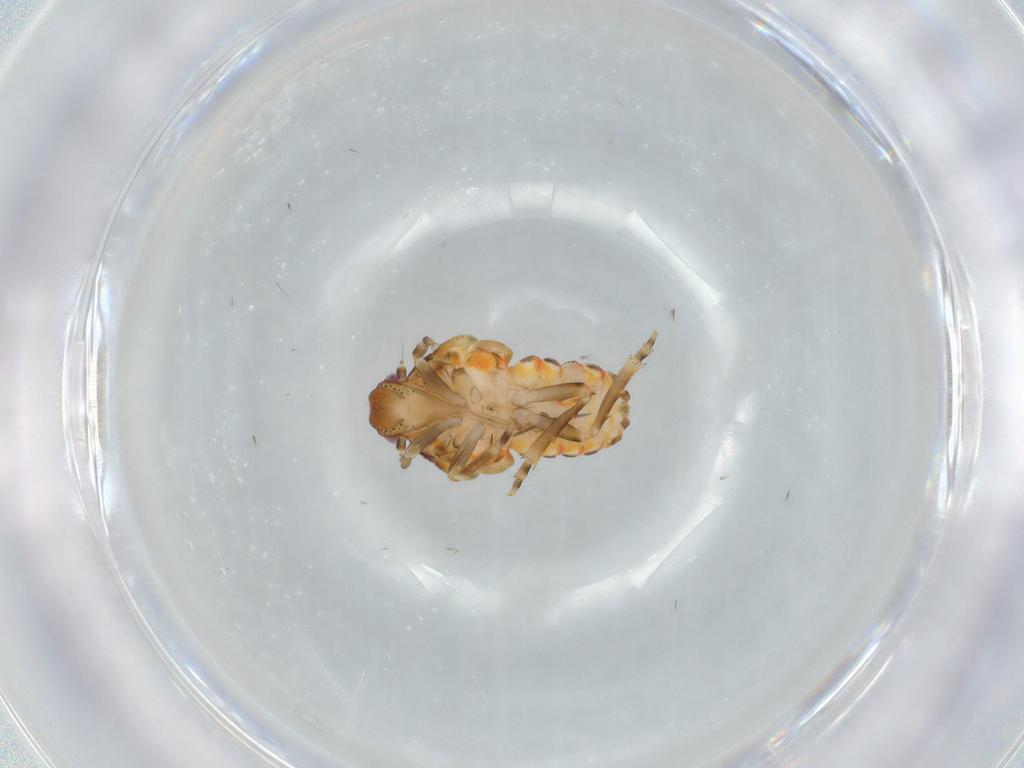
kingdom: Animalia
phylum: Arthropoda
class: Insecta
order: Hemiptera
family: Flatidae
